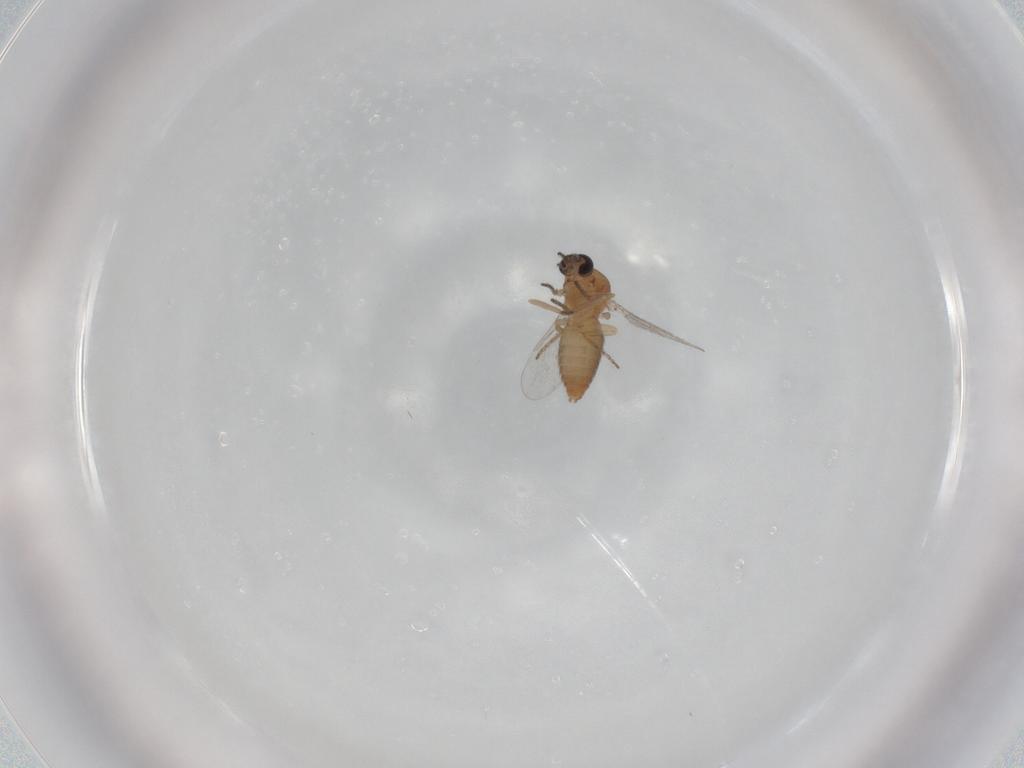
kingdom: Animalia
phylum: Arthropoda
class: Insecta
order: Diptera
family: Ceratopogonidae
